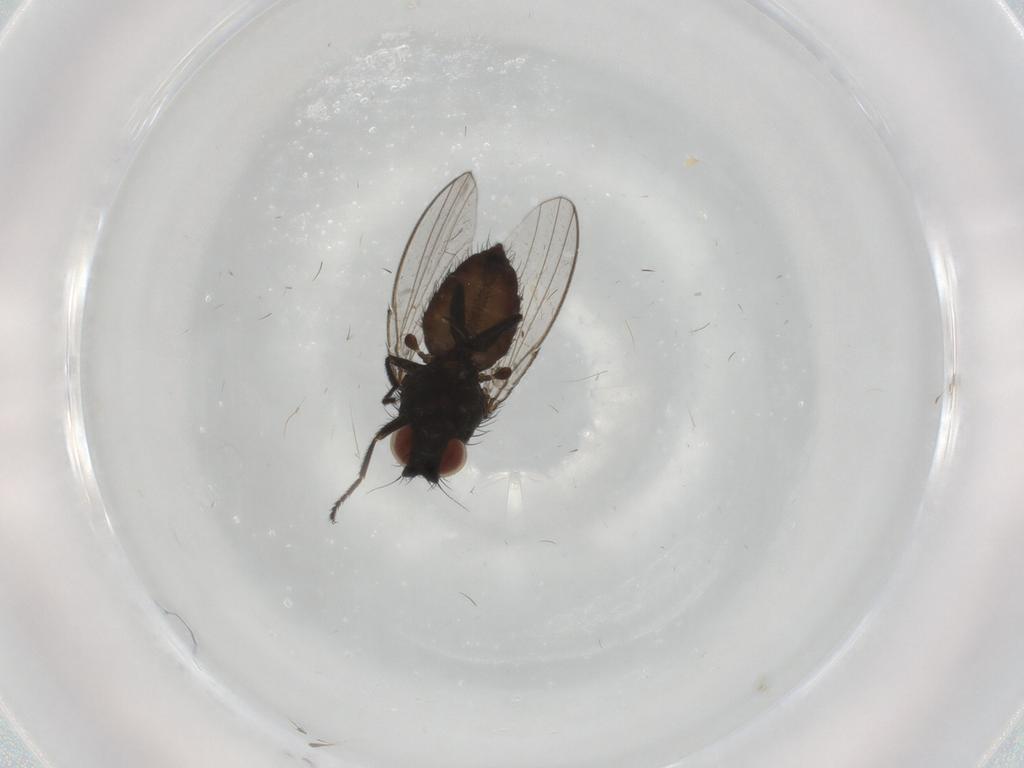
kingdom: Animalia
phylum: Arthropoda
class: Insecta
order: Diptera
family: Milichiidae
